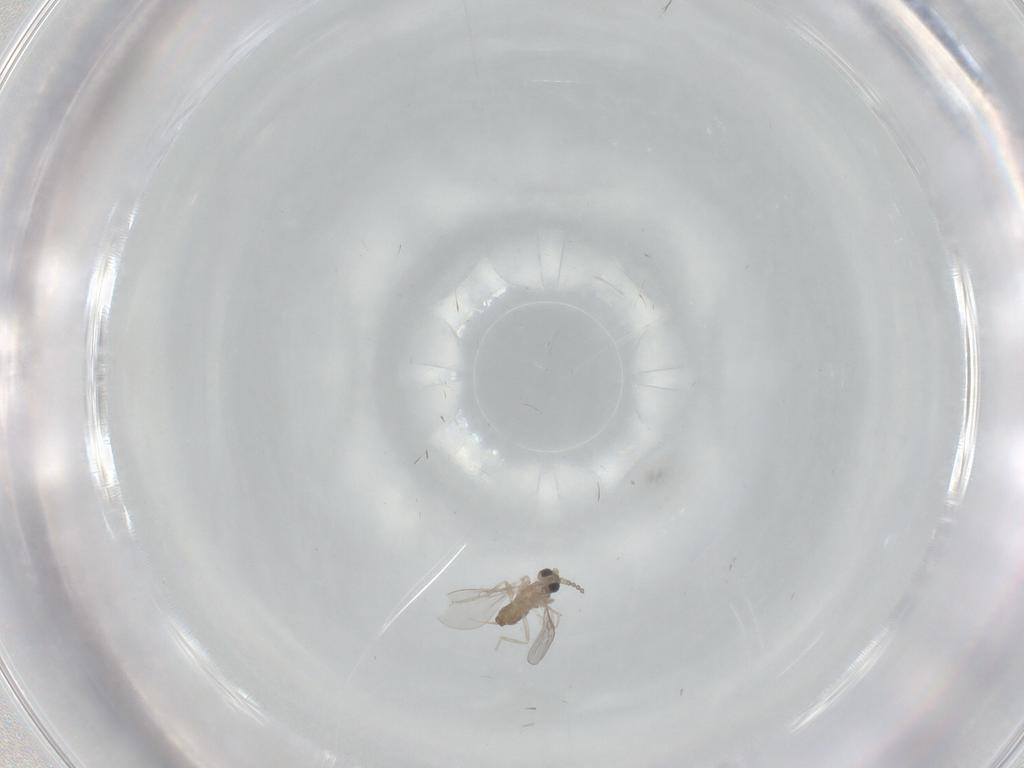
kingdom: Animalia
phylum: Arthropoda
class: Insecta
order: Diptera
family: Cecidomyiidae
